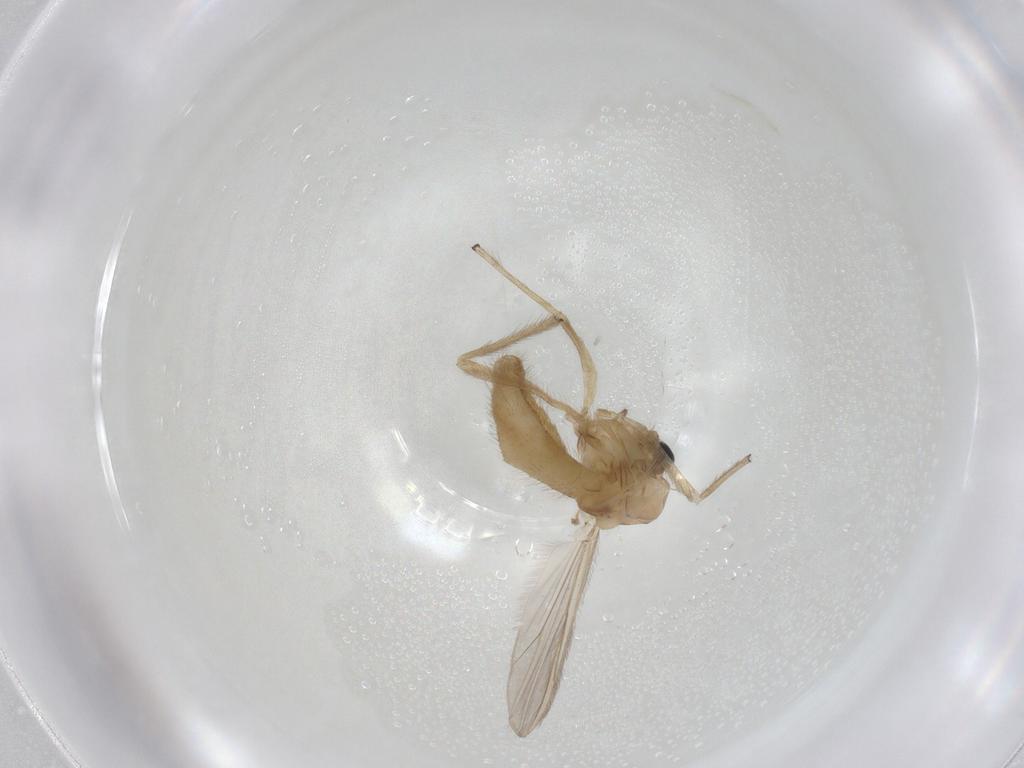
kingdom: Animalia
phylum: Arthropoda
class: Insecta
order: Diptera
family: Chironomidae
